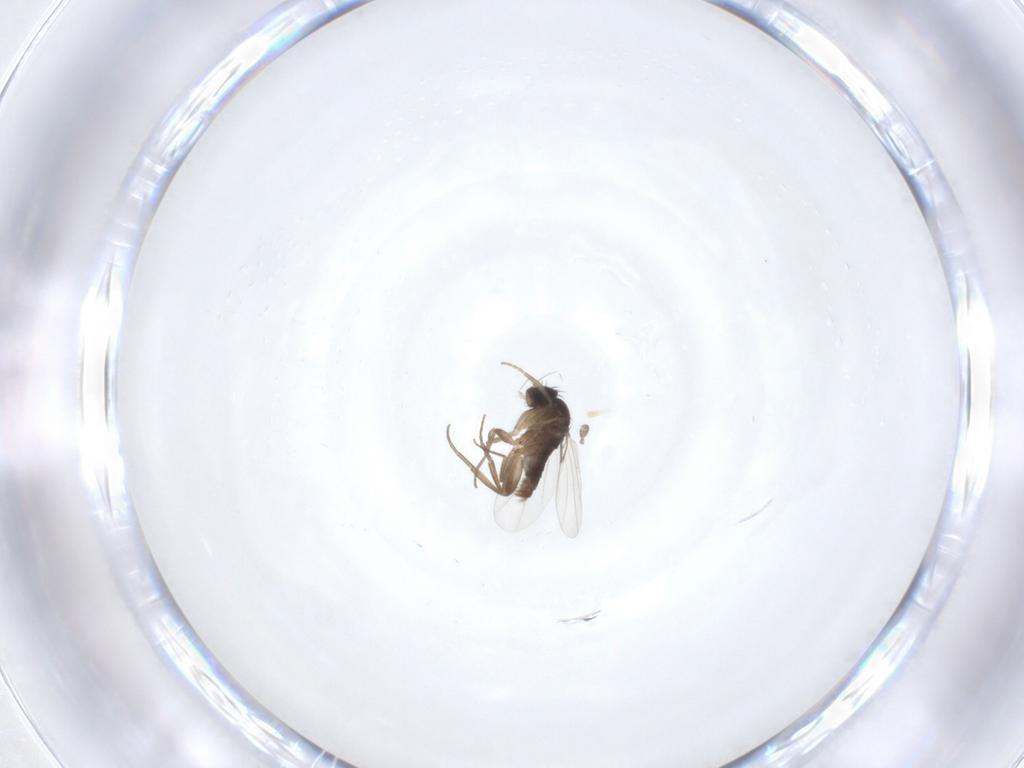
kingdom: Animalia
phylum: Arthropoda
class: Insecta
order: Diptera
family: Phoridae
